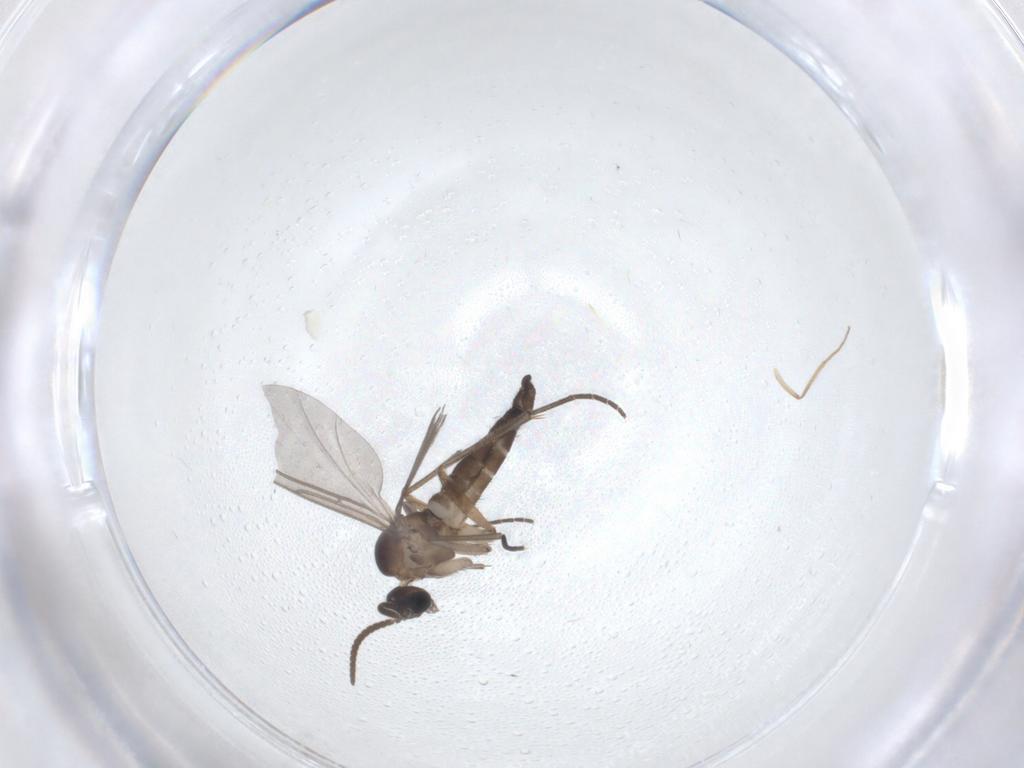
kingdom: Animalia
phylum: Arthropoda
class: Insecta
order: Diptera
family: Sciaridae
